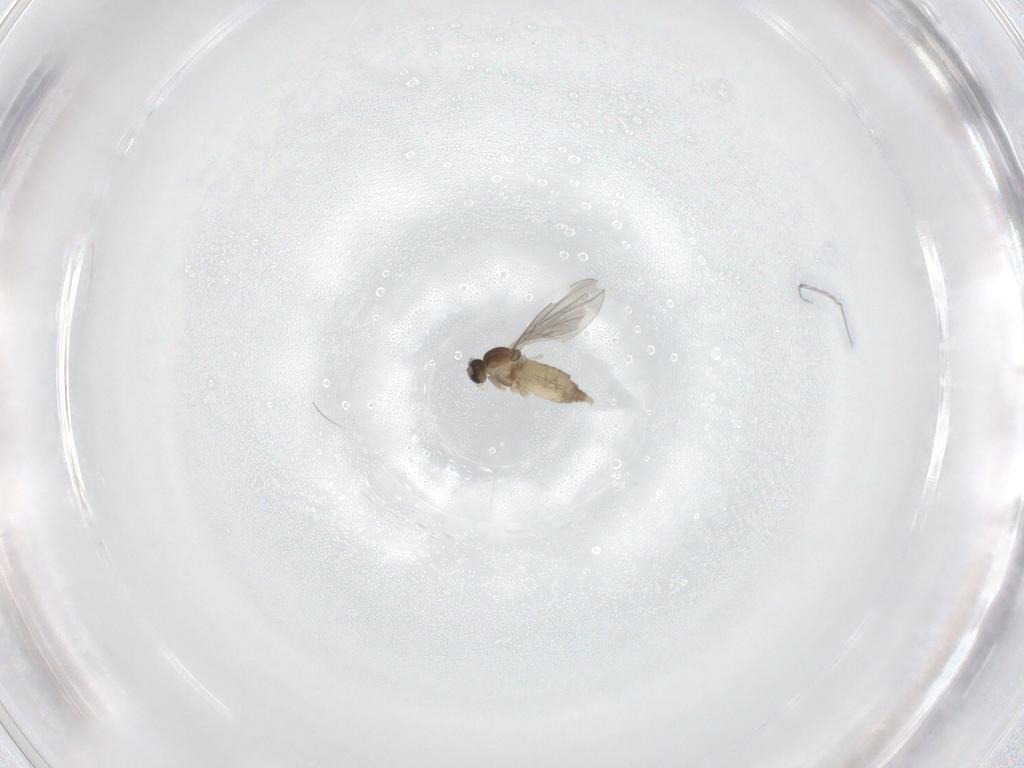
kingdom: Animalia
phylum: Arthropoda
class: Insecta
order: Diptera
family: Cecidomyiidae
